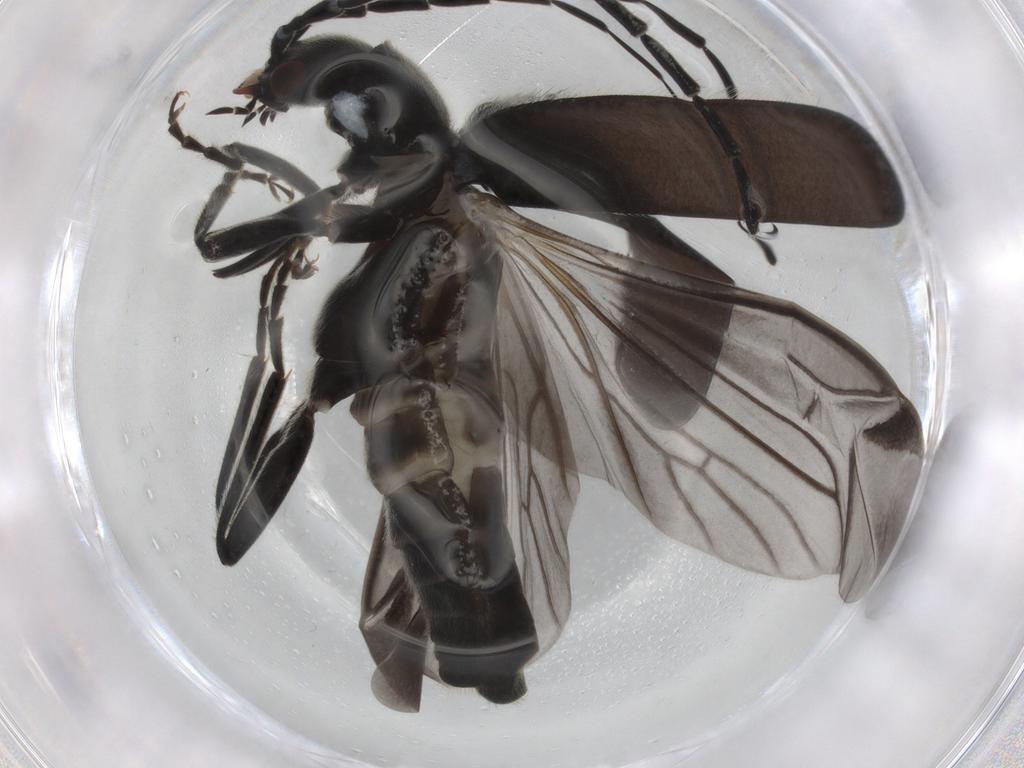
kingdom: Animalia
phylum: Arthropoda
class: Insecta
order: Coleoptera
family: Cantharidae
